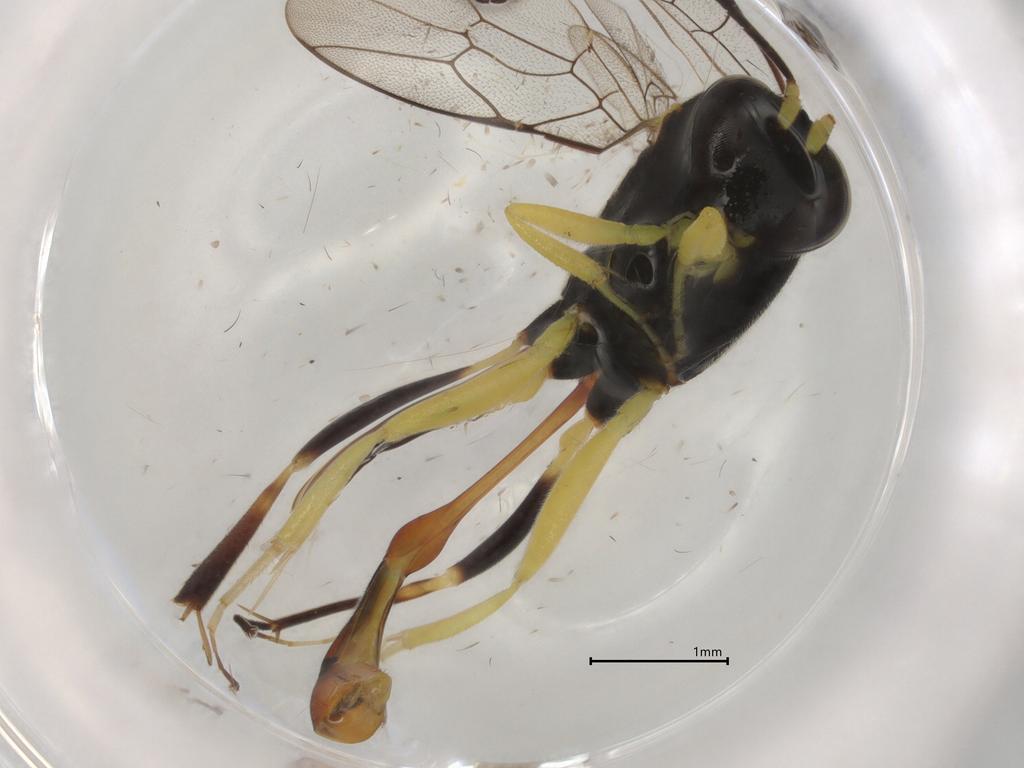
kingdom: Animalia
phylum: Arthropoda
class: Insecta
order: Hymenoptera
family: Ichneumonidae
